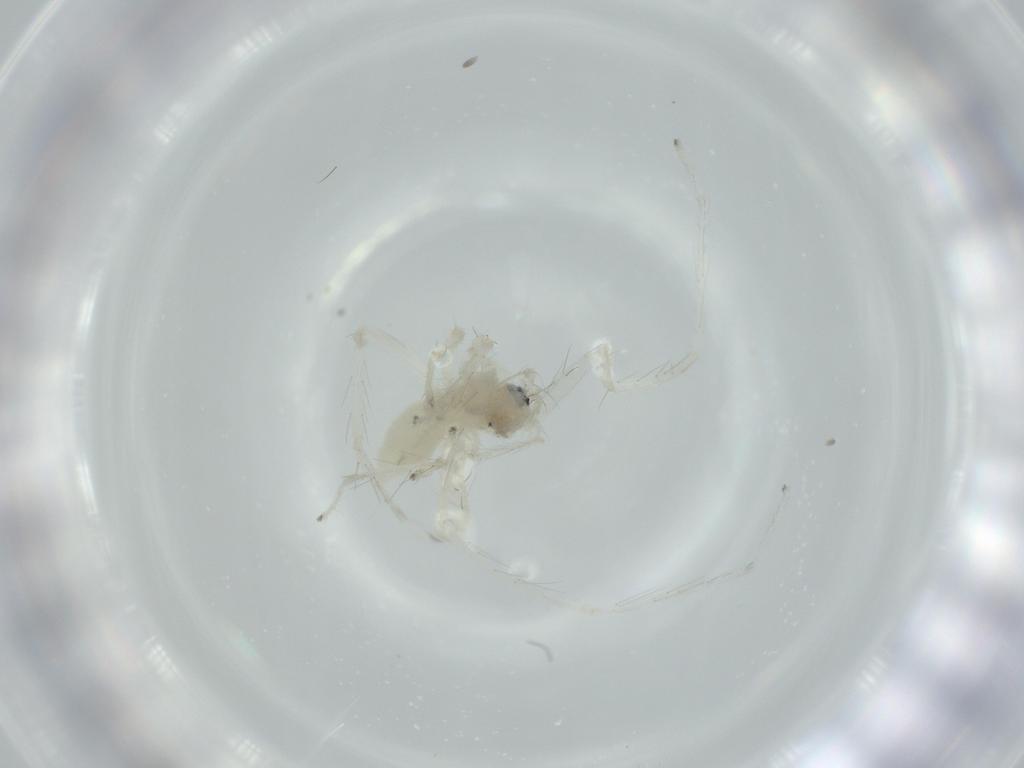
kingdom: Animalia
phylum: Arthropoda
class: Arachnida
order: Araneae
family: Anyphaenidae
